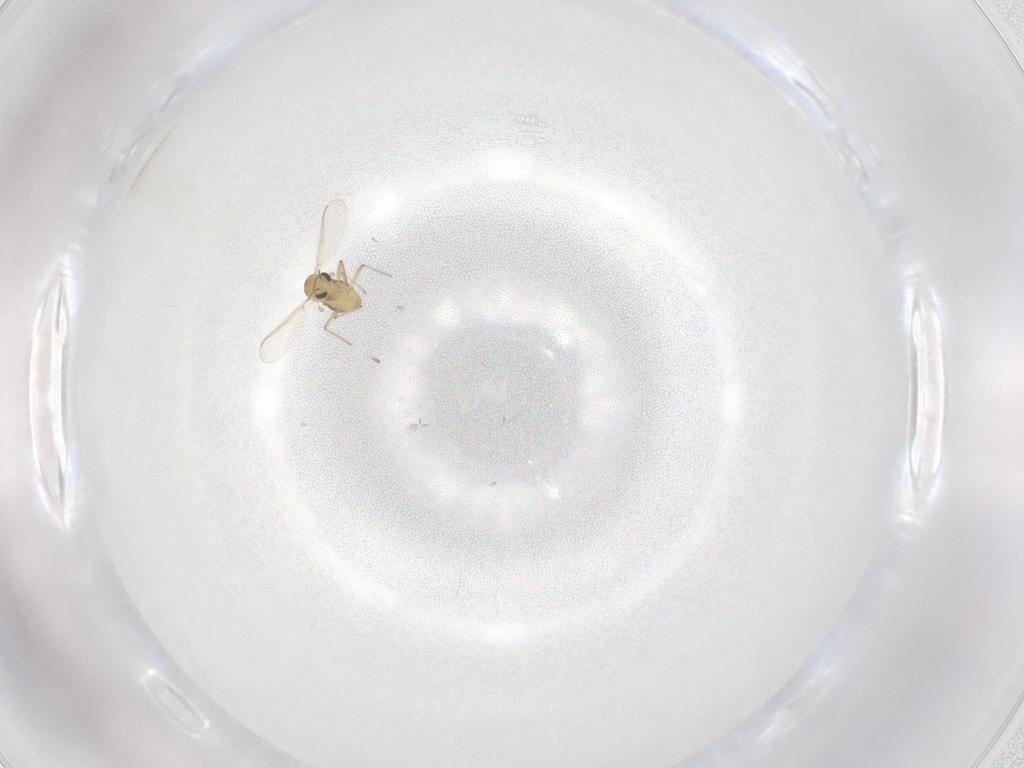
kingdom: Animalia
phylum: Arthropoda
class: Insecta
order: Diptera
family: Chironomidae
